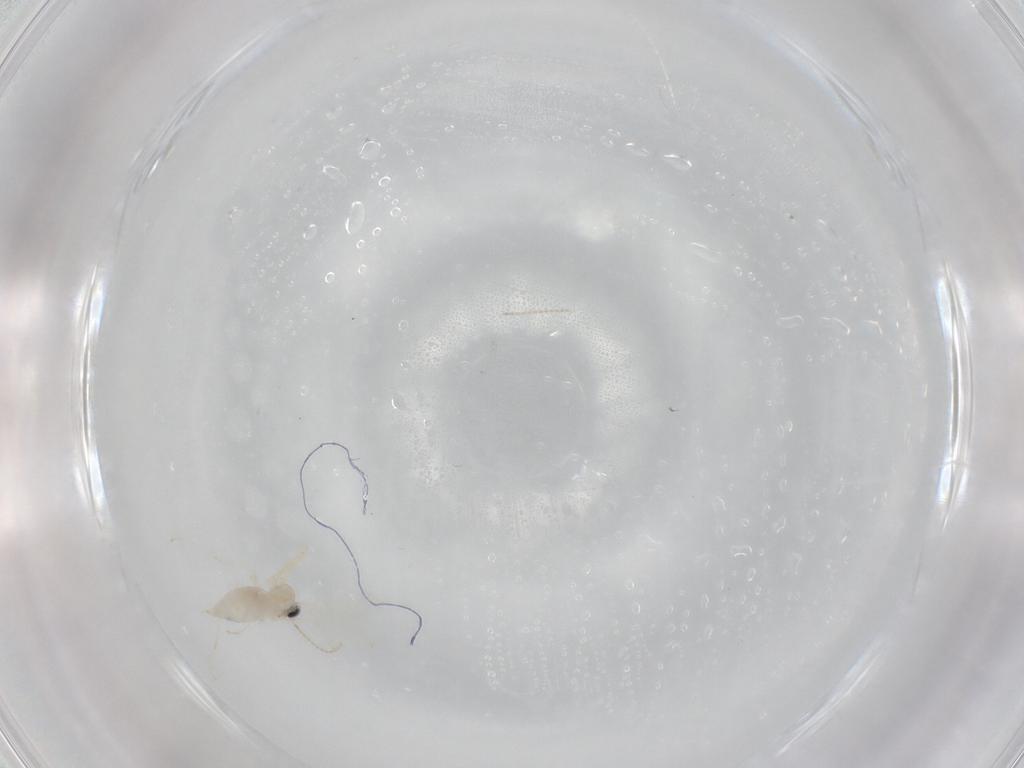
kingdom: Animalia
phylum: Arthropoda
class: Insecta
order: Diptera
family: Cecidomyiidae
